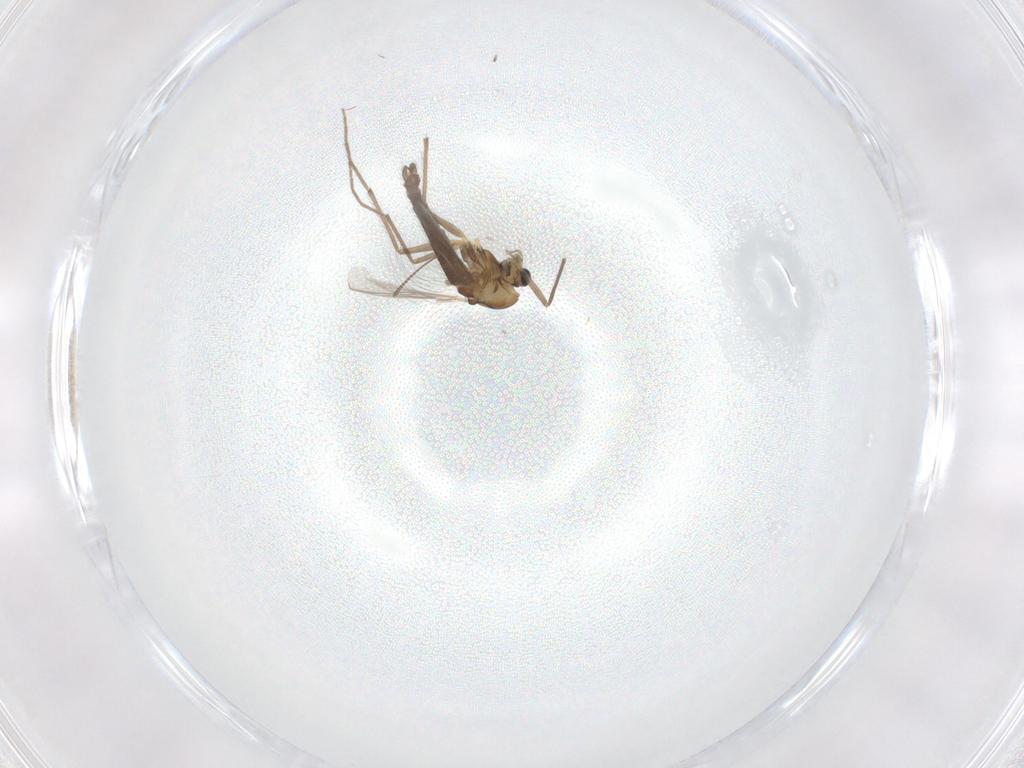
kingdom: Animalia
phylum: Arthropoda
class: Insecta
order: Diptera
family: Chironomidae
